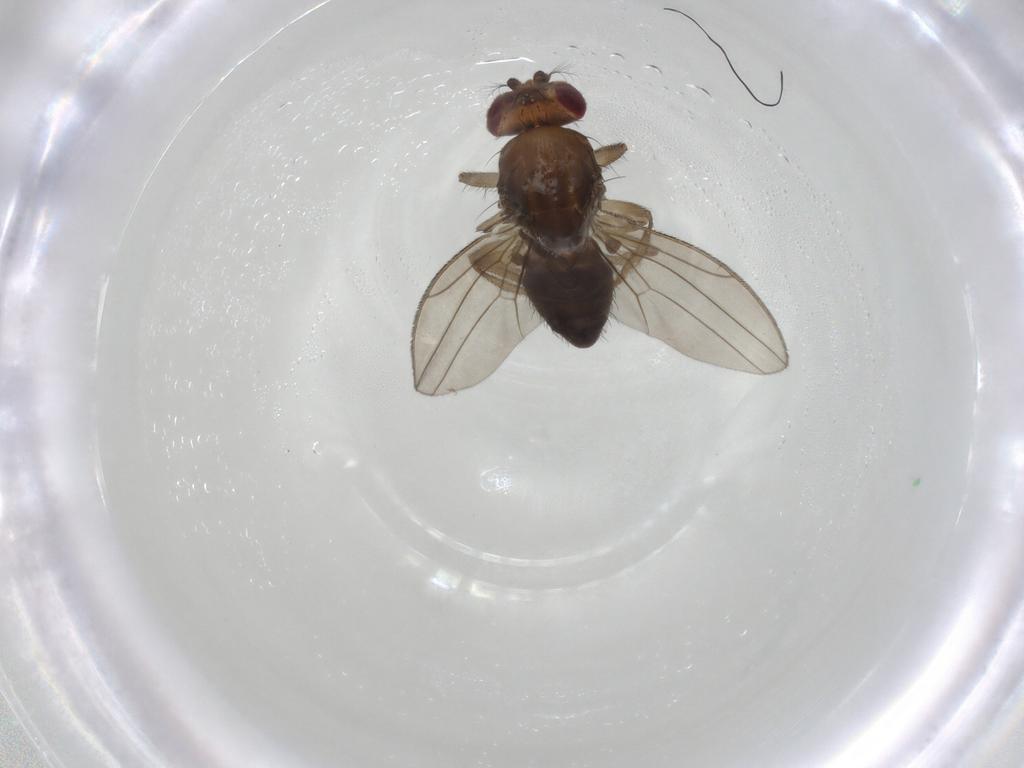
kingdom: Animalia
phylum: Arthropoda
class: Insecta
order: Diptera
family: Drosophilidae
